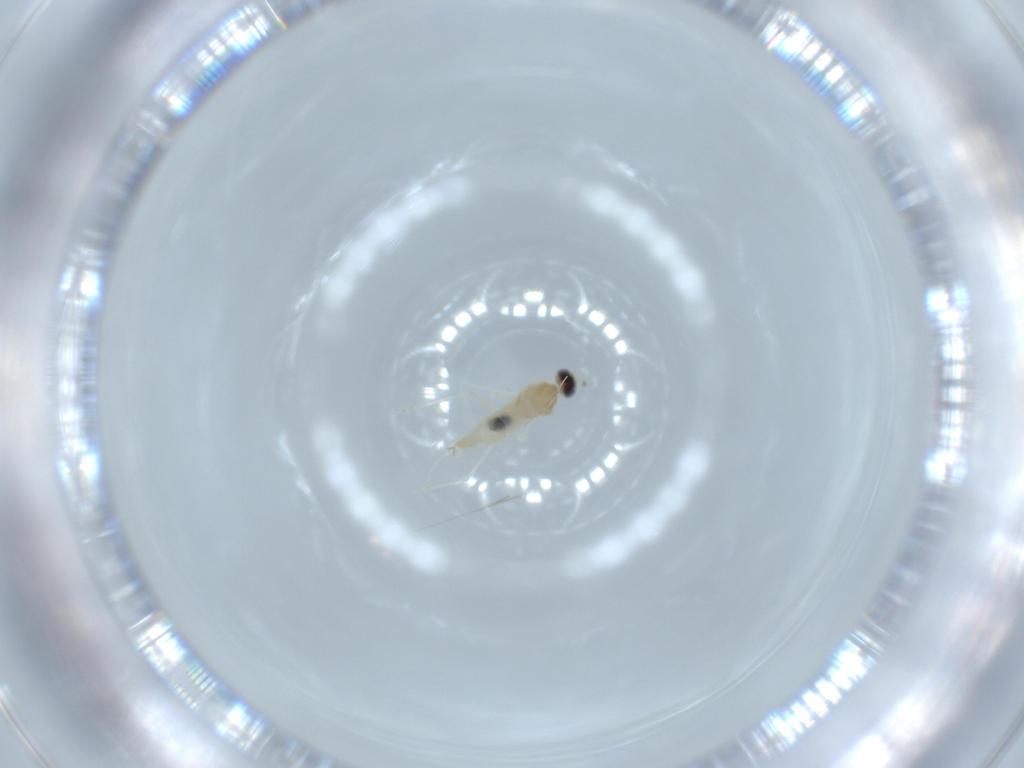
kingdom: Animalia
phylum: Arthropoda
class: Insecta
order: Diptera
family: Cecidomyiidae
